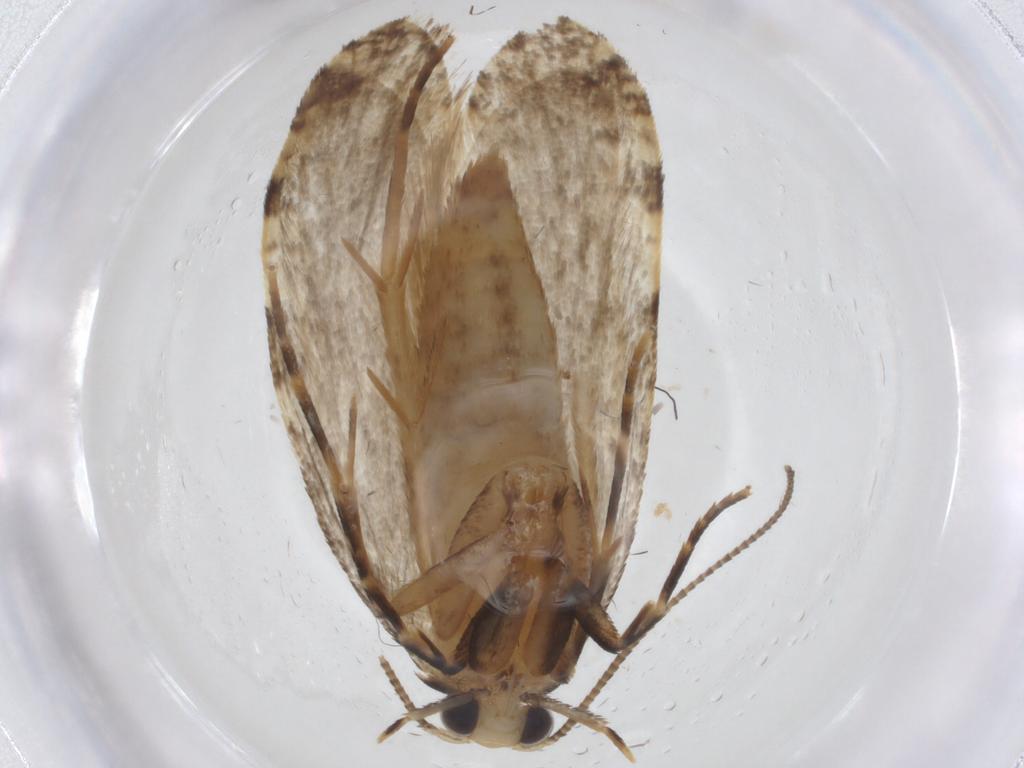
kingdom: Animalia
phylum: Arthropoda
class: Insecta
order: Lepidoptera
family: Tineidae
